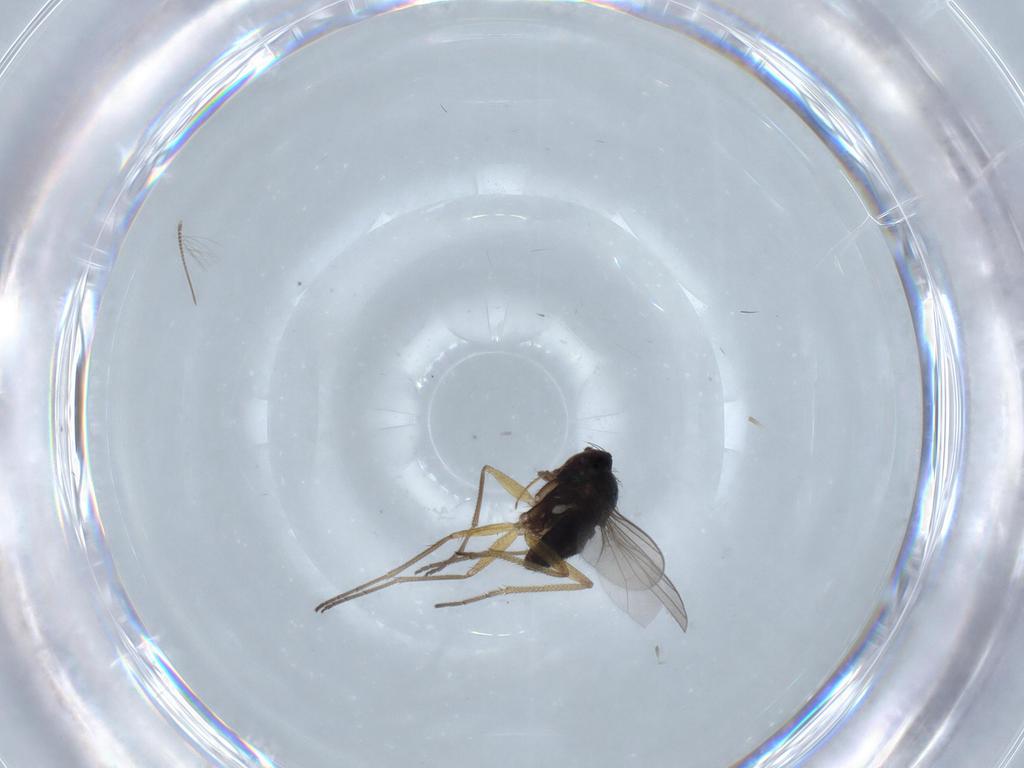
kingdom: Animalia
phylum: Arthropoda
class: Insecta
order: Diptera
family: Dolichopodidae
